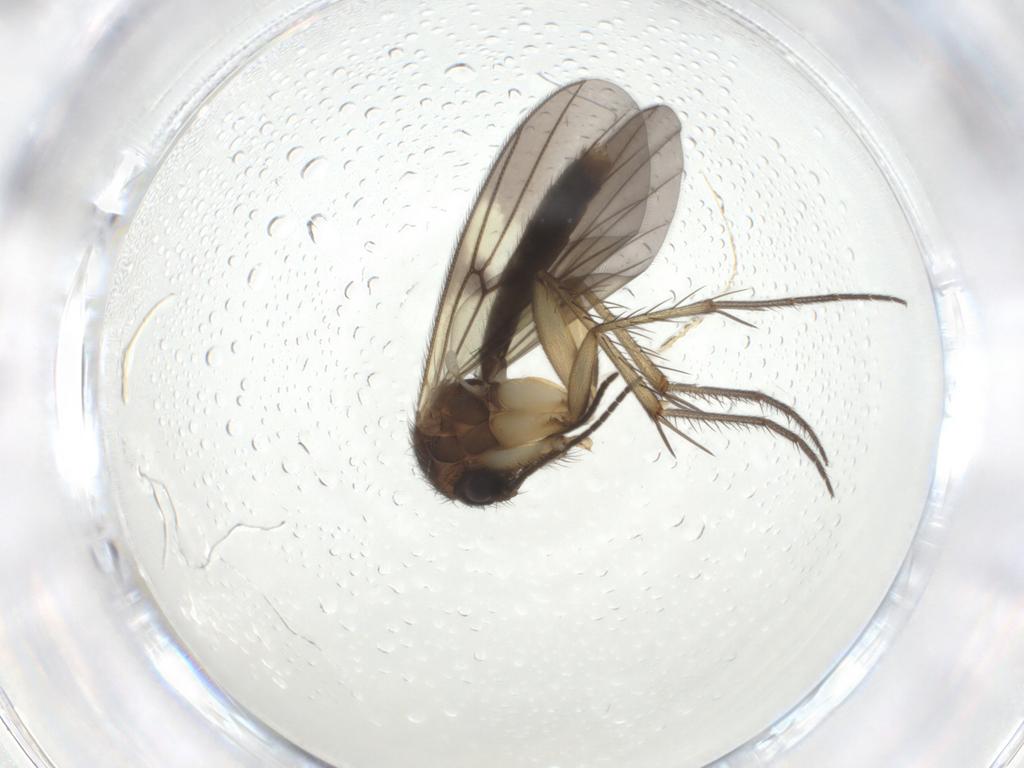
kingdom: Animalia
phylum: Arthropoda
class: Insecta
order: Diptera
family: Mycetophilidae
